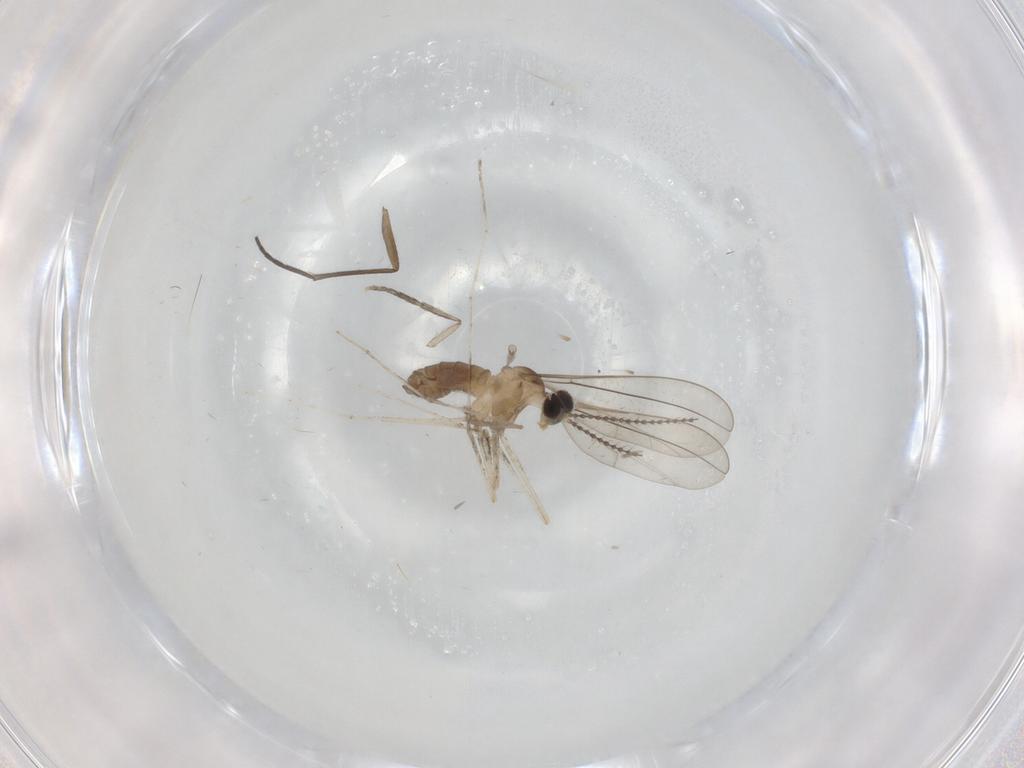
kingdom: Animalia
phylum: Arthropoda
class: Insecta
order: Diptera
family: Cecidomyiidae
